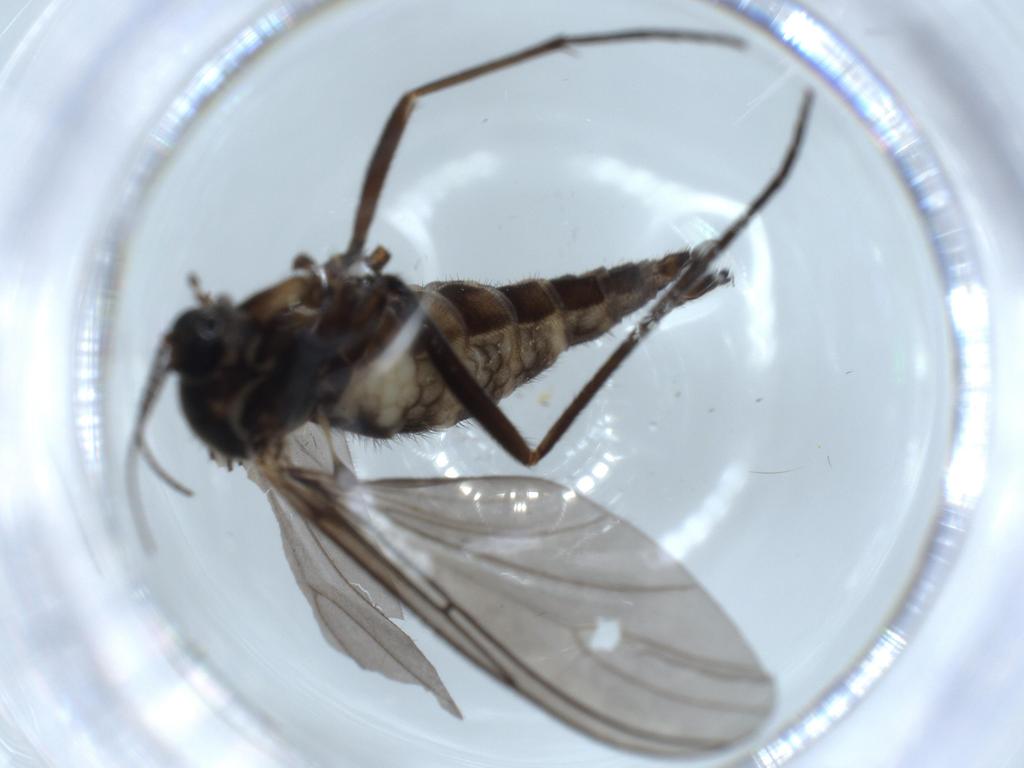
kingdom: Animalia
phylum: Arthropoda
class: Insecta
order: Diptera
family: Sciaridae
